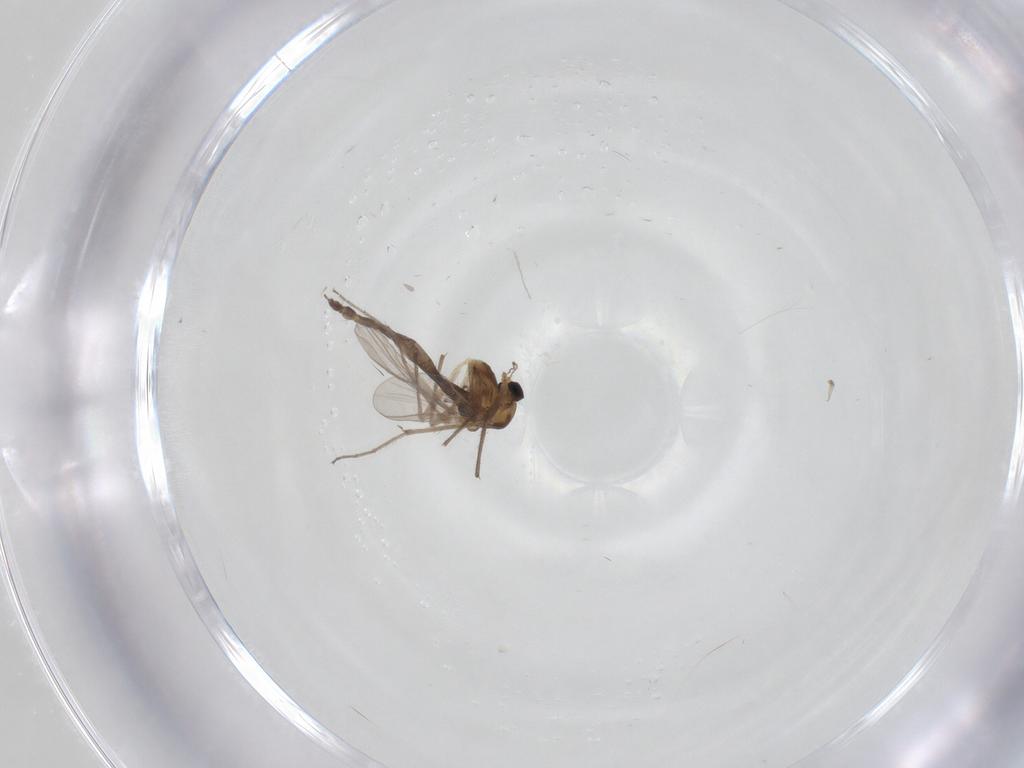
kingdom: Animalia
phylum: Arthropoda
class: Insecta
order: Diptera
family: Chironomidae
